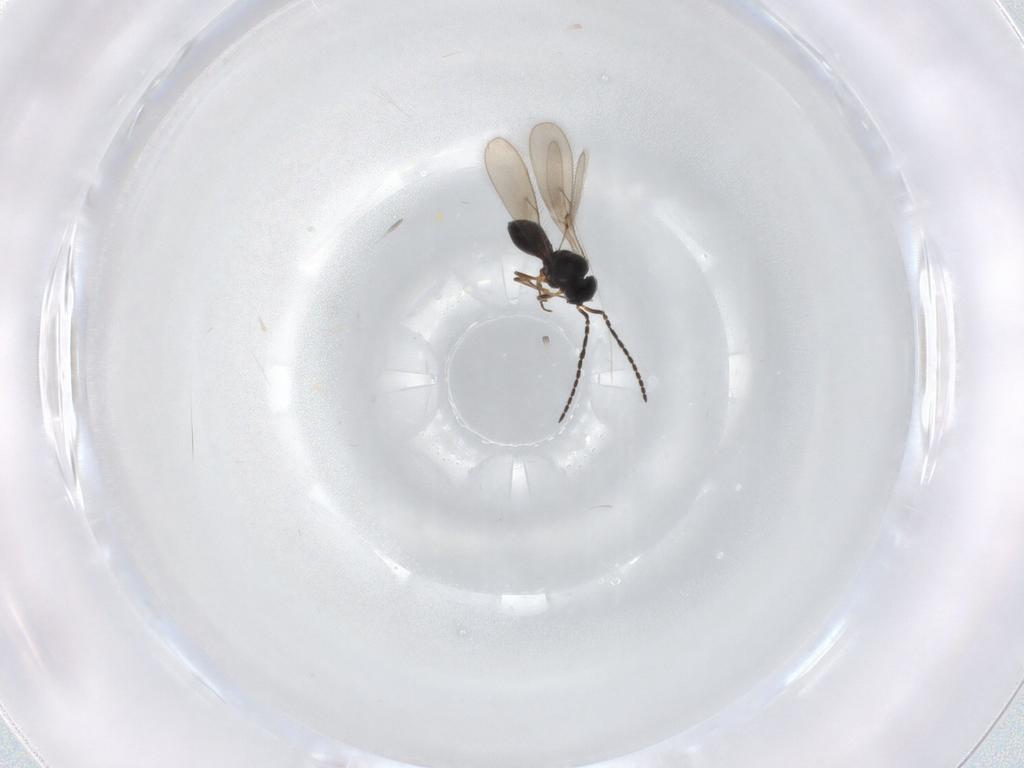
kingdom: Animalia
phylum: Arthropoda
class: Insecta
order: Hymenoptera
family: Scelionidae
